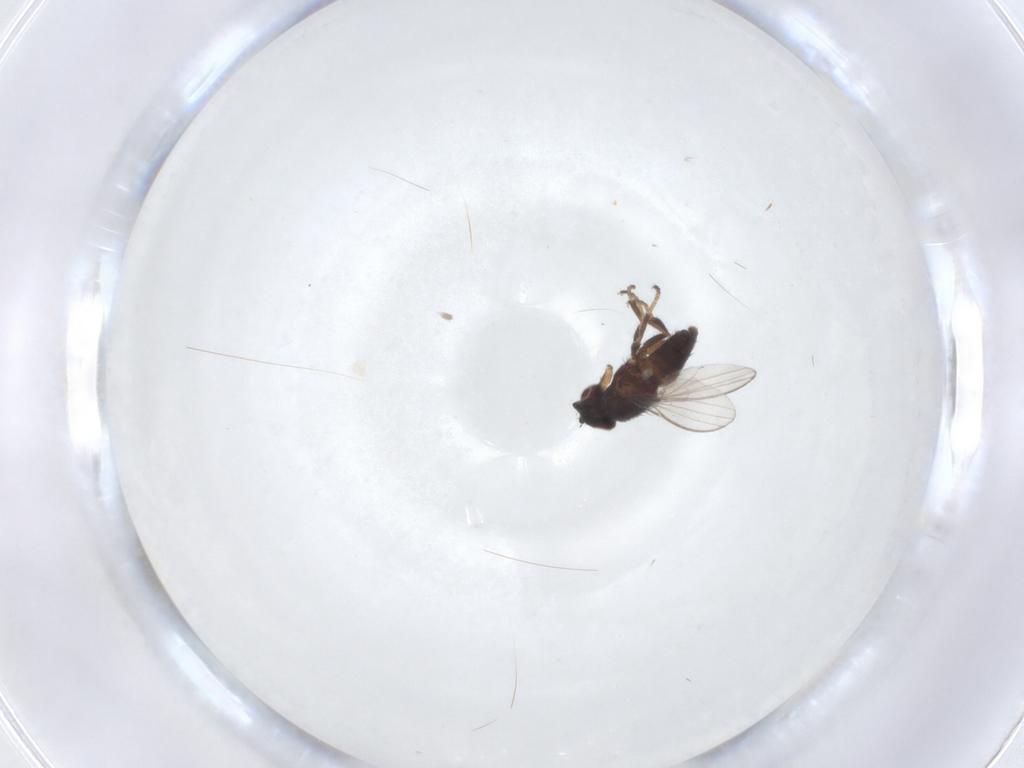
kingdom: Animalia
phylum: Arthropoda
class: Insecta
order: Diptera
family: Milichiidae
